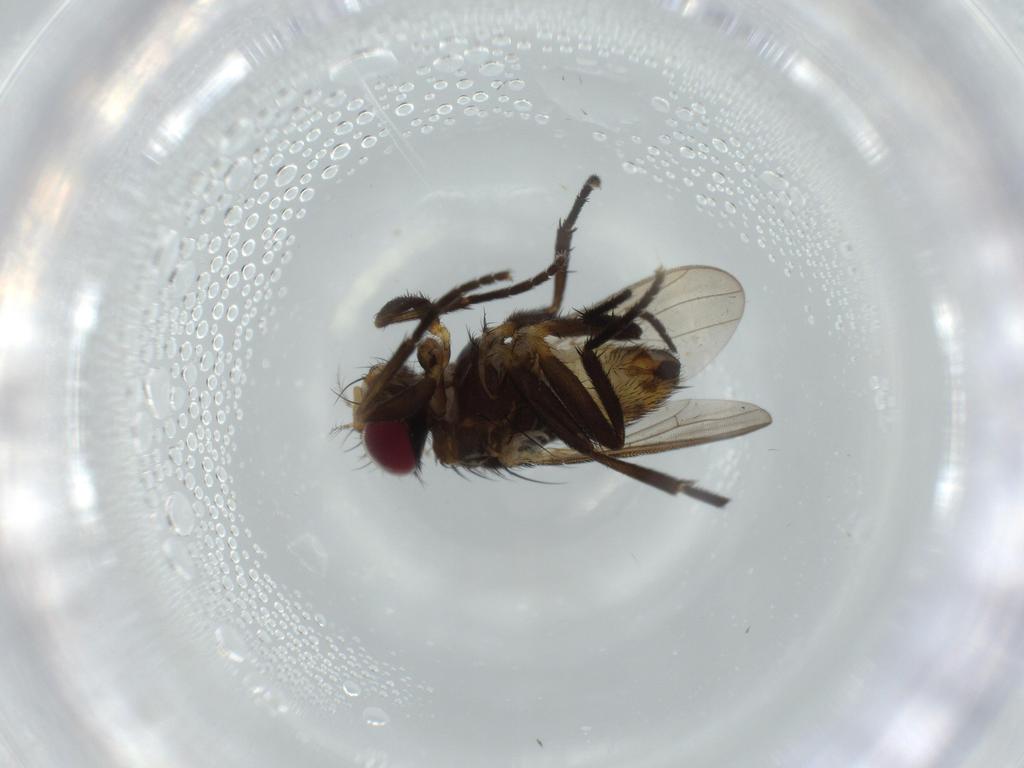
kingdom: Animalia
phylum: Arthropoda
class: Insecta
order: Diptera
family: Anthomyiidae
